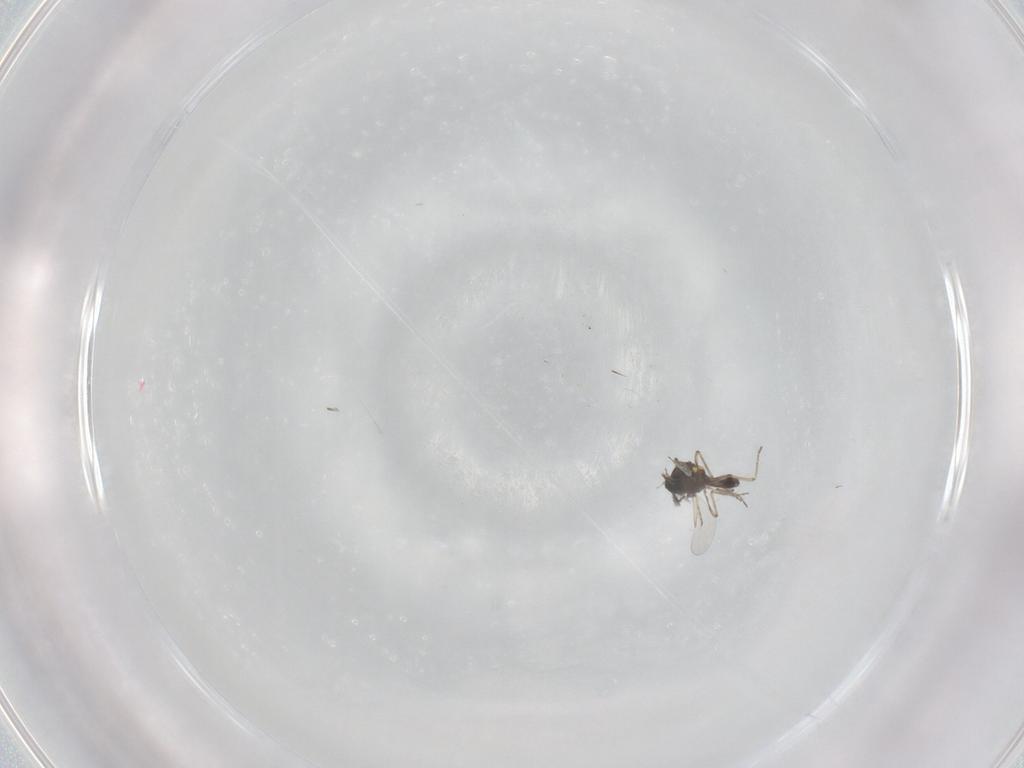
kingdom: Animalia
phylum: Arthropoda
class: Insecta
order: Diptera
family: Ceratopogonidae
